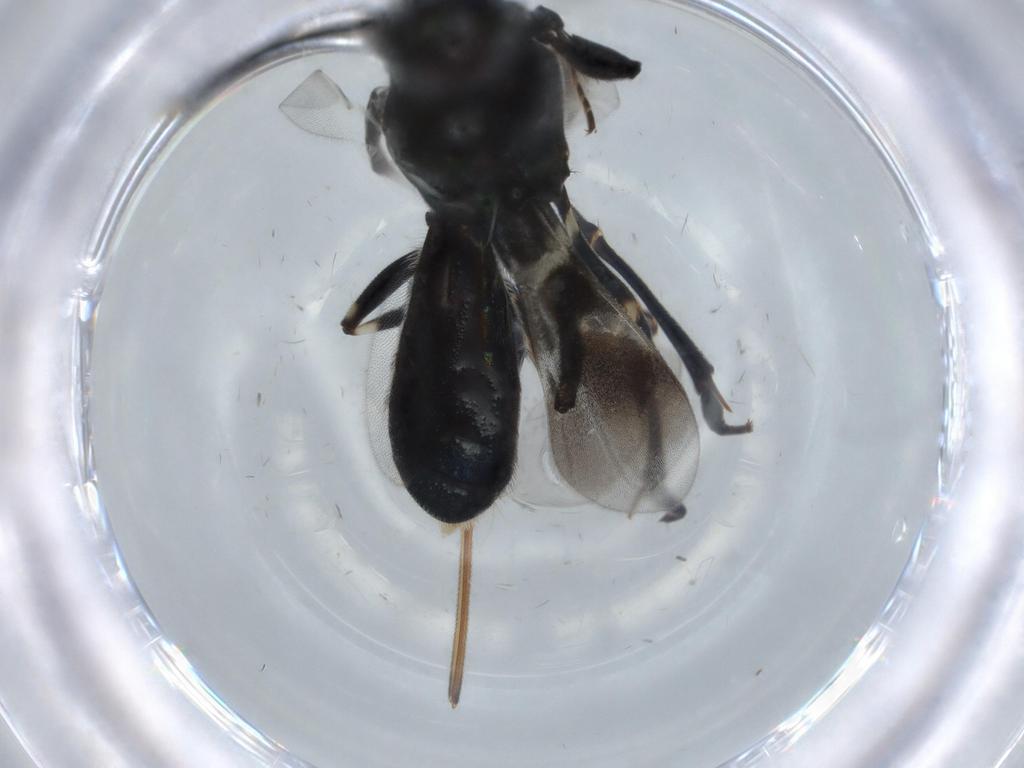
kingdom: Animalia
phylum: Arthropoda
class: Insecta
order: Hymenoptera
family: Eupelmidae
